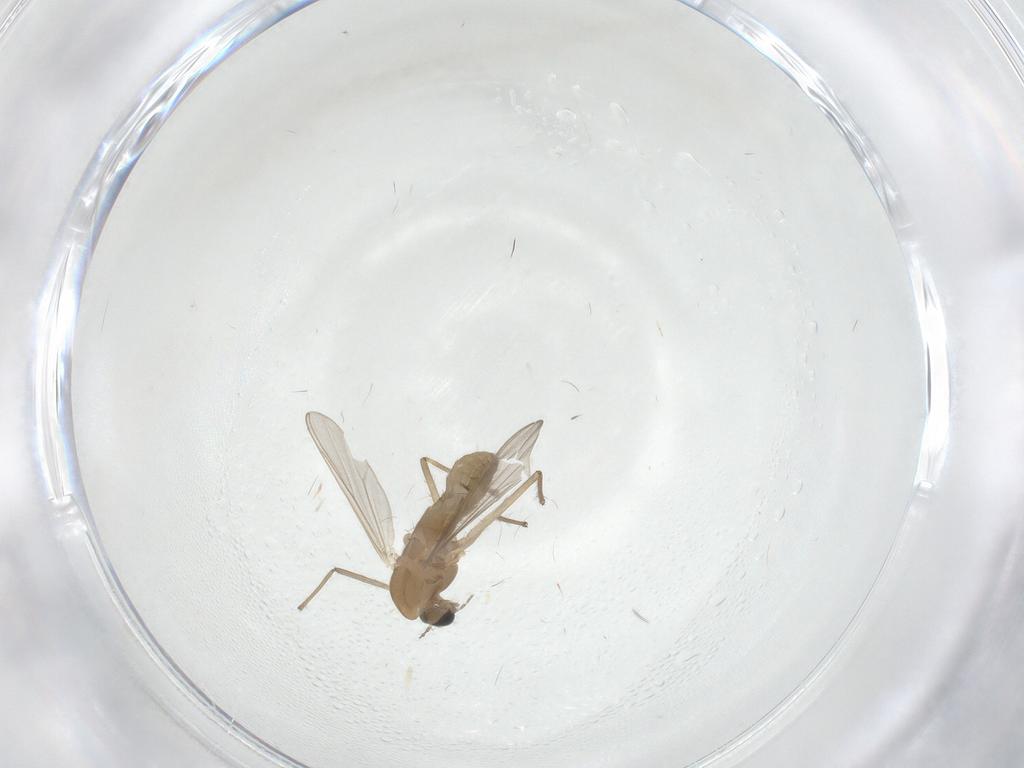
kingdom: Animalia
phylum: Arthropoda
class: Insecta
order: Diptera
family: Chironomidae
